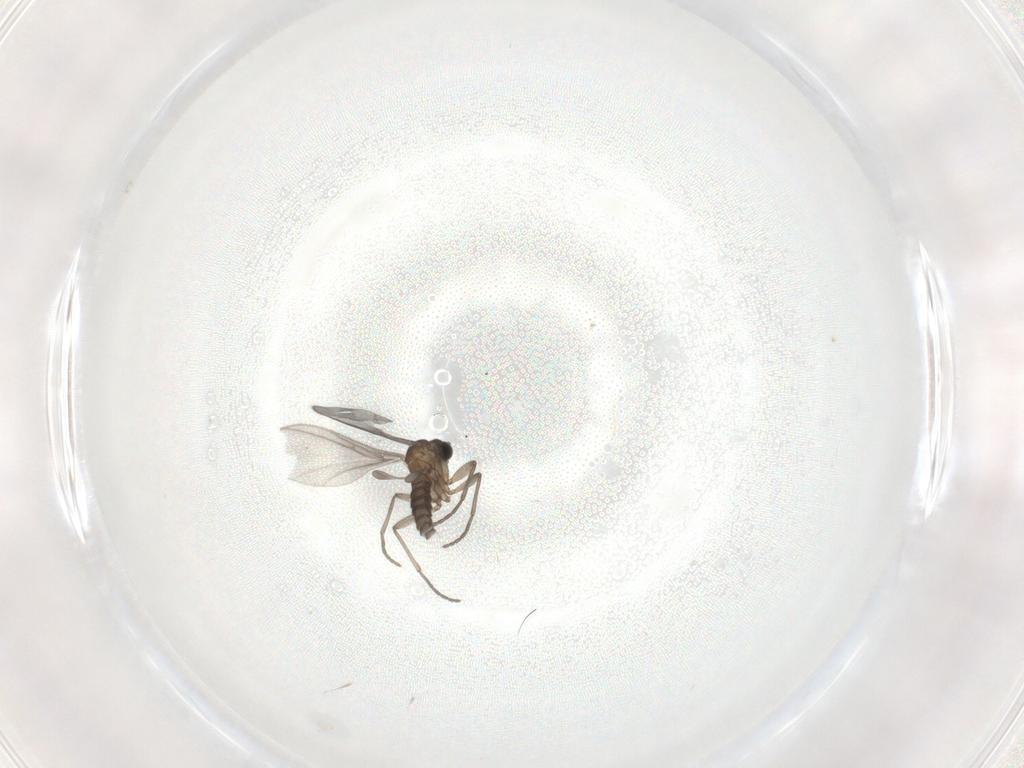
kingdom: Animalia
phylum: Arthropoda
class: Insecta
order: Diptera
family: Sciaridae
